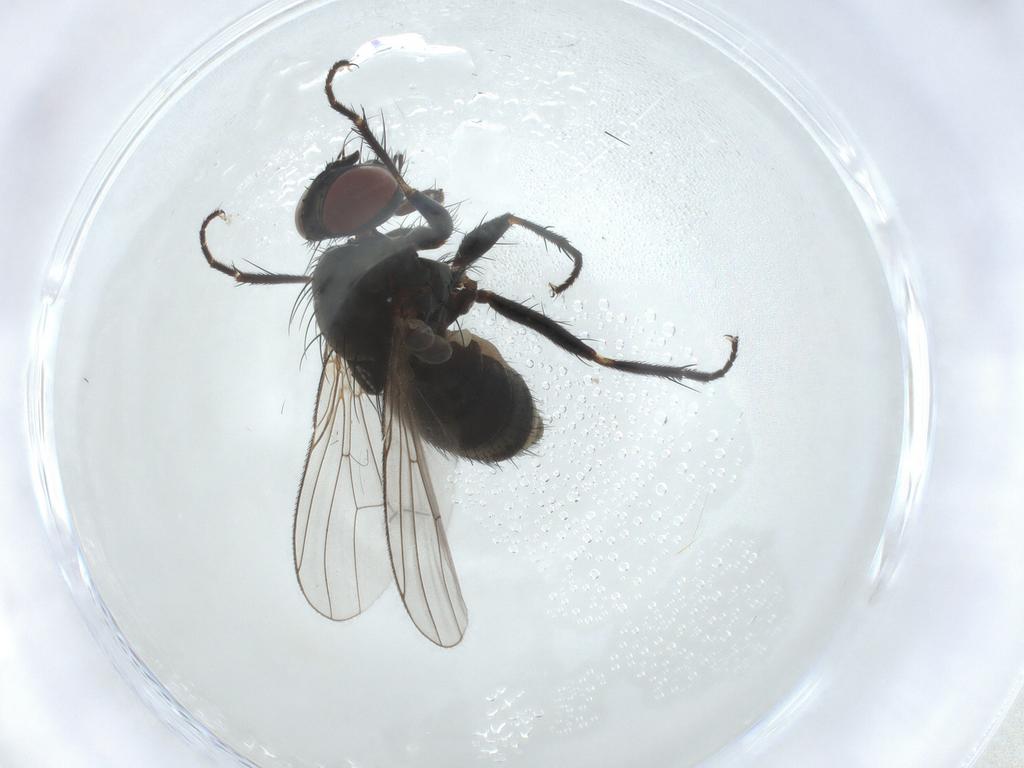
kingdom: Animalia
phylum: Arthropoda
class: Insecta
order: Diptera
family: Muscidae
